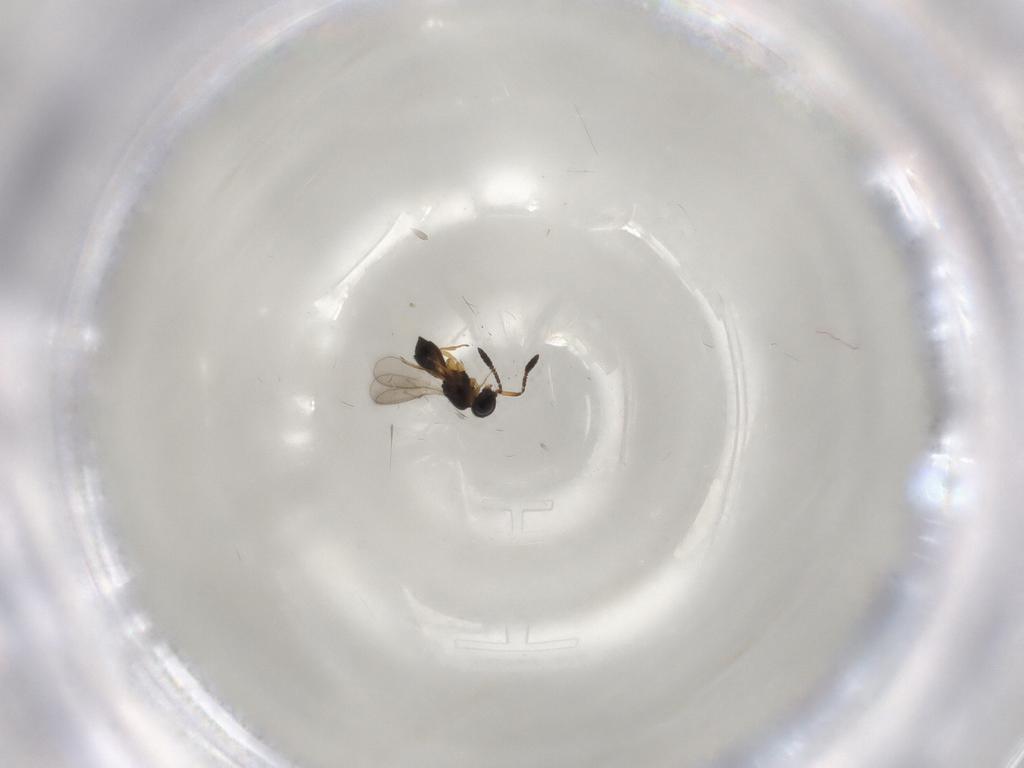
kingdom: Animalia
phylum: Arthropoda
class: Insecta
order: Hymenoptera
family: Scelionidae
